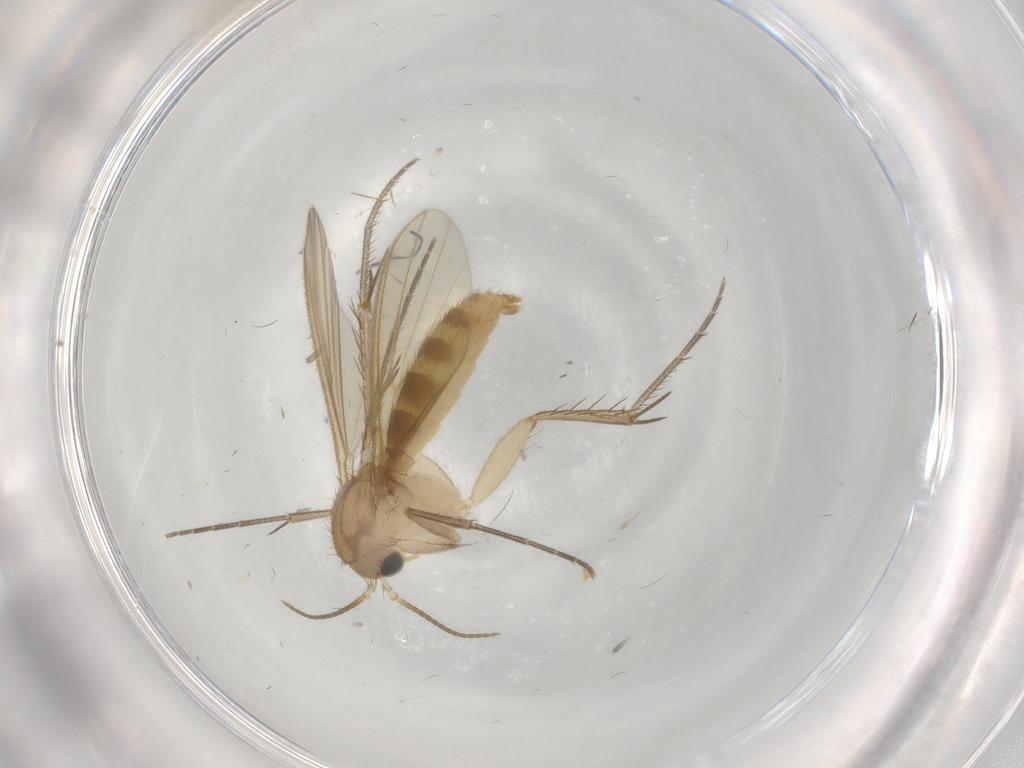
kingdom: Animalia
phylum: Arthropoda
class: Insecta
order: Diptera
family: Mycetophilidae
